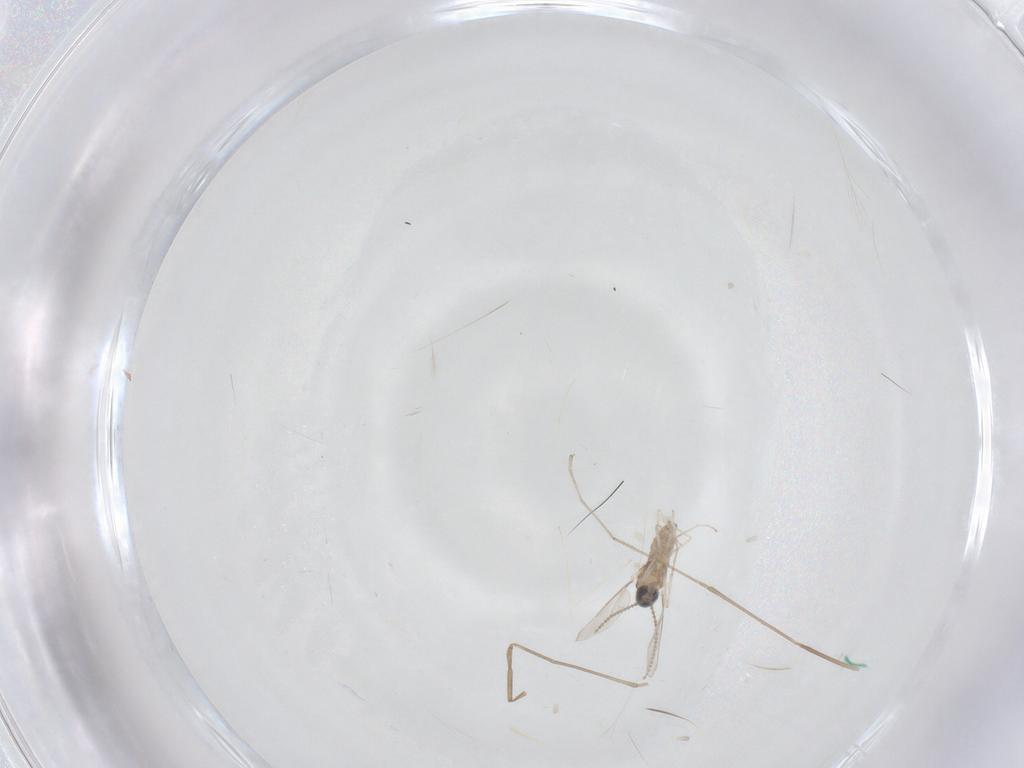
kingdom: Animalia
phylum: Arthropoda
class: Insecta
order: Diptera
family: Cecidomyiidae
